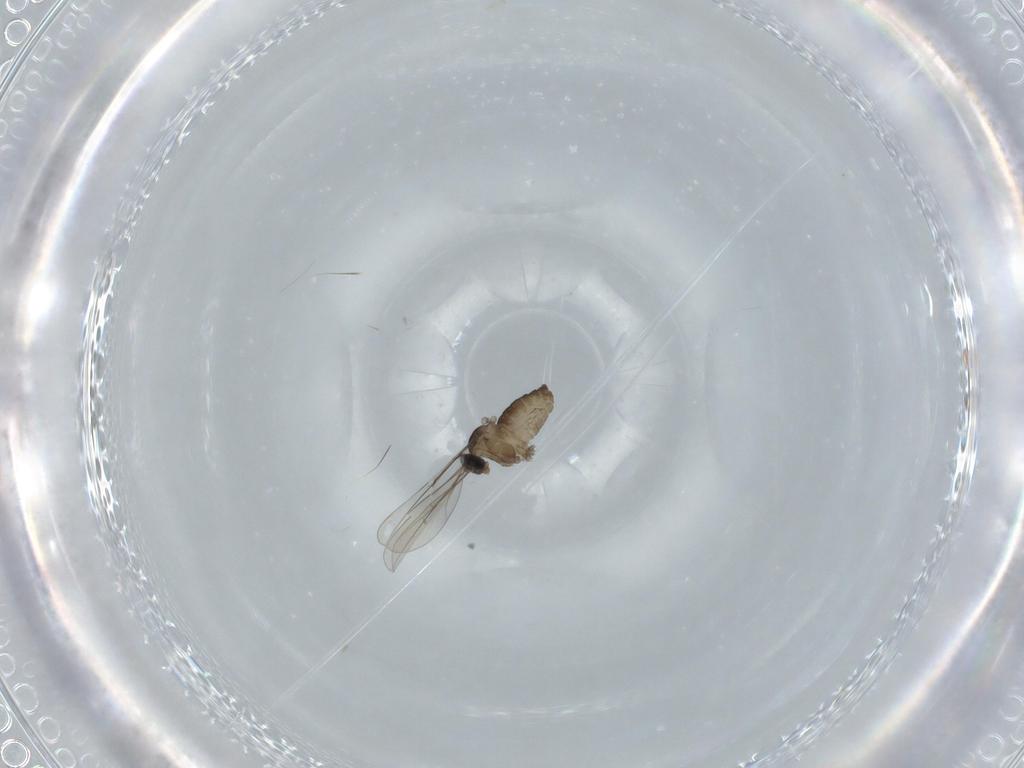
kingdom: Animalia
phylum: Arthropoda
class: Insecta
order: Diptera
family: Cecidomyiidae
